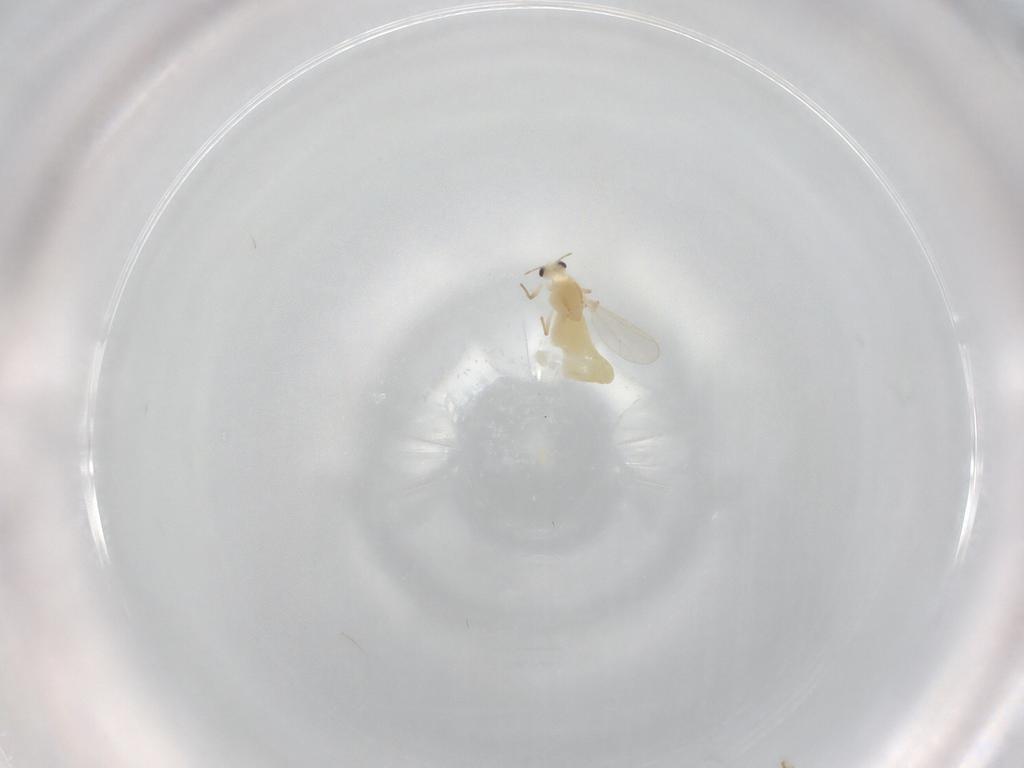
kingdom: Animalia
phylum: Arthropoda
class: Insecta
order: Diptera
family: Chironomidae
